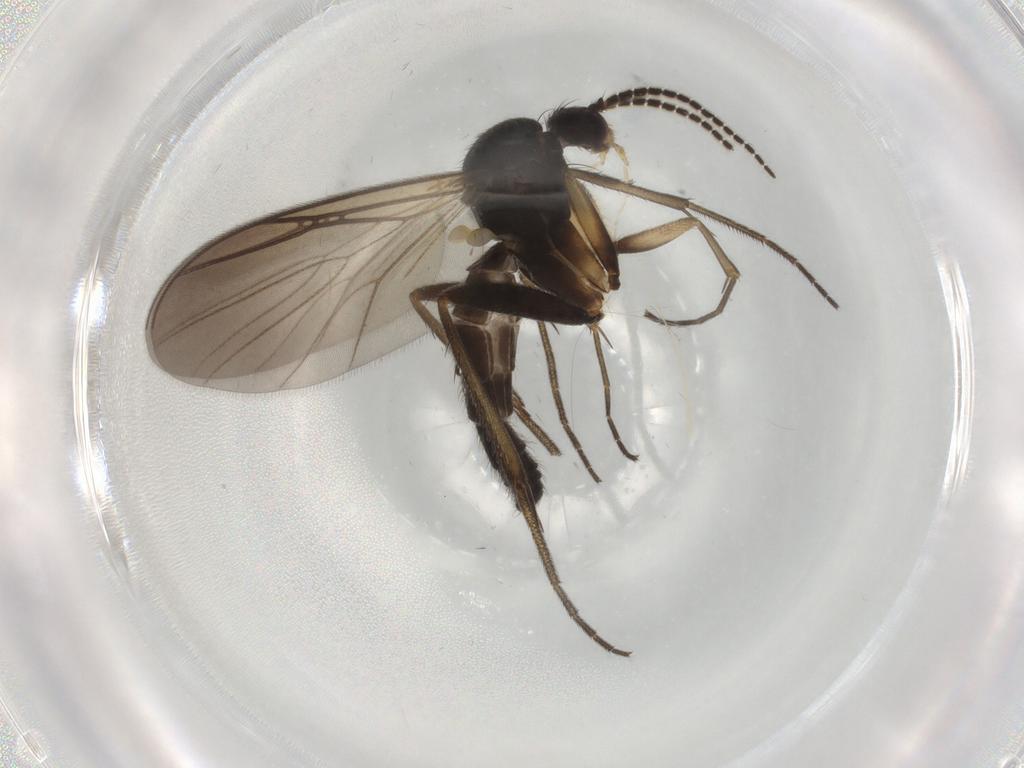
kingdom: Animalia
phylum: Arthropoda
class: Insecta
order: Diptera
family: Mycetophilidae
